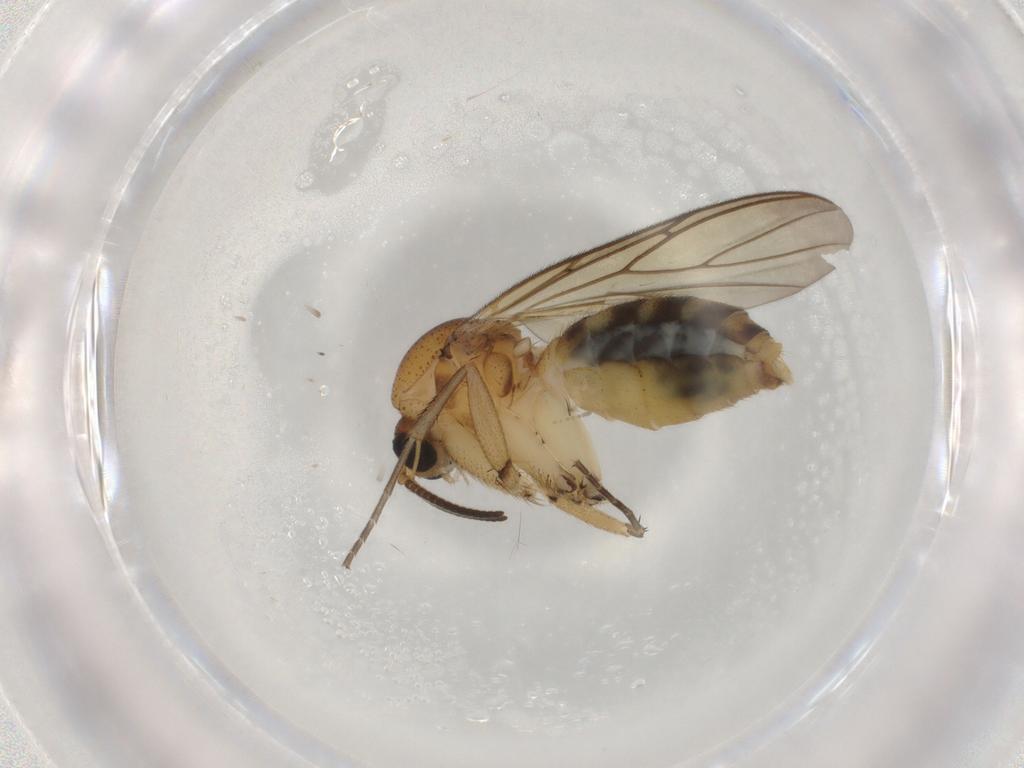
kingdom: Animalia
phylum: Arthropoda
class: Insecta
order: Diptera
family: Mycetophilidae
